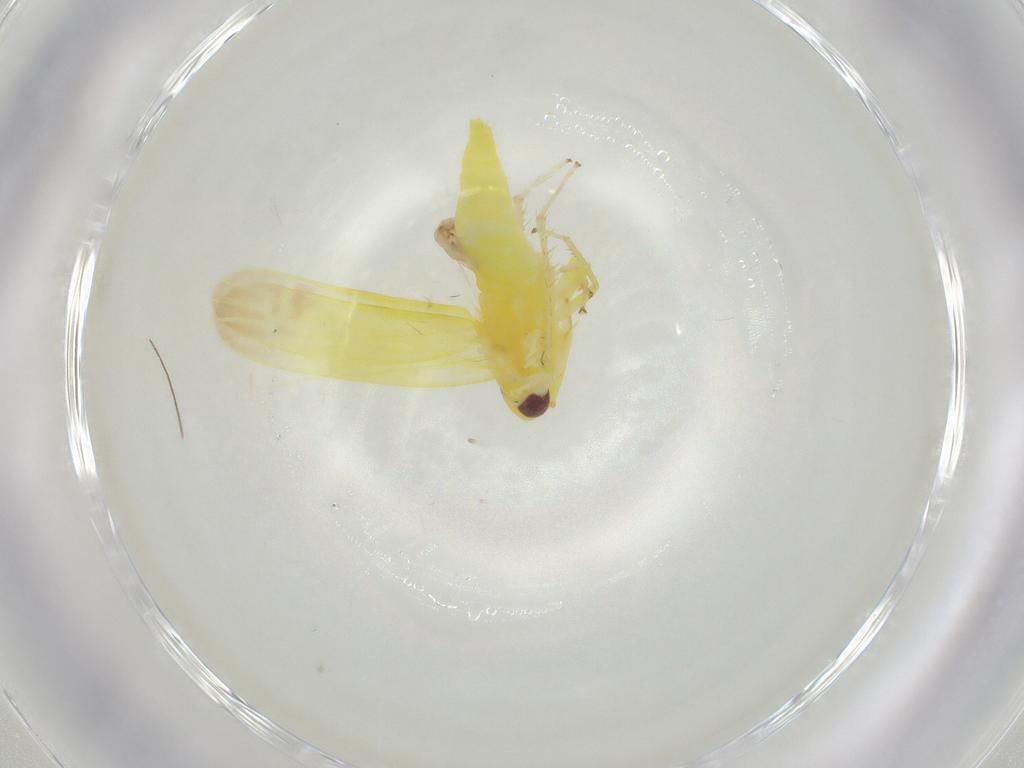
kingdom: Animalia
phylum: Arthropoda
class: Insecta
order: Hemiptera
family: Cicadellidae
